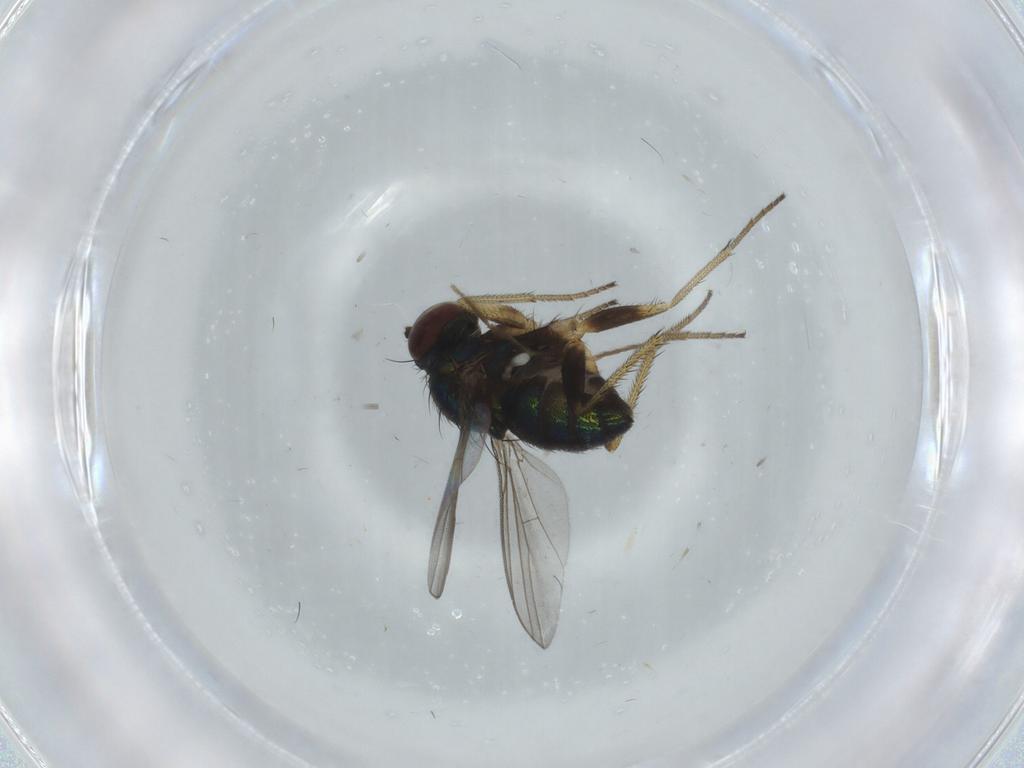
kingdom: Animalia
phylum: Arthropoda
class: Insecta
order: Diptera
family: Dolichopodidae
